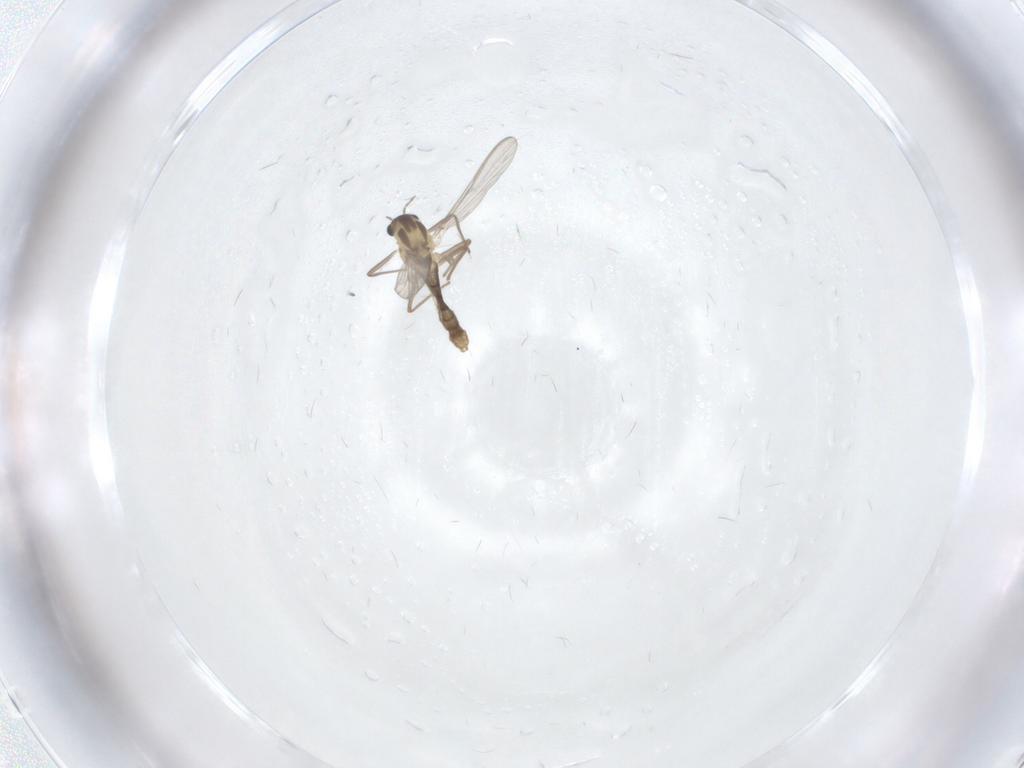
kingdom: Animalia
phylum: Arthropoda
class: Insecta
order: Diptera
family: Chironomidae
